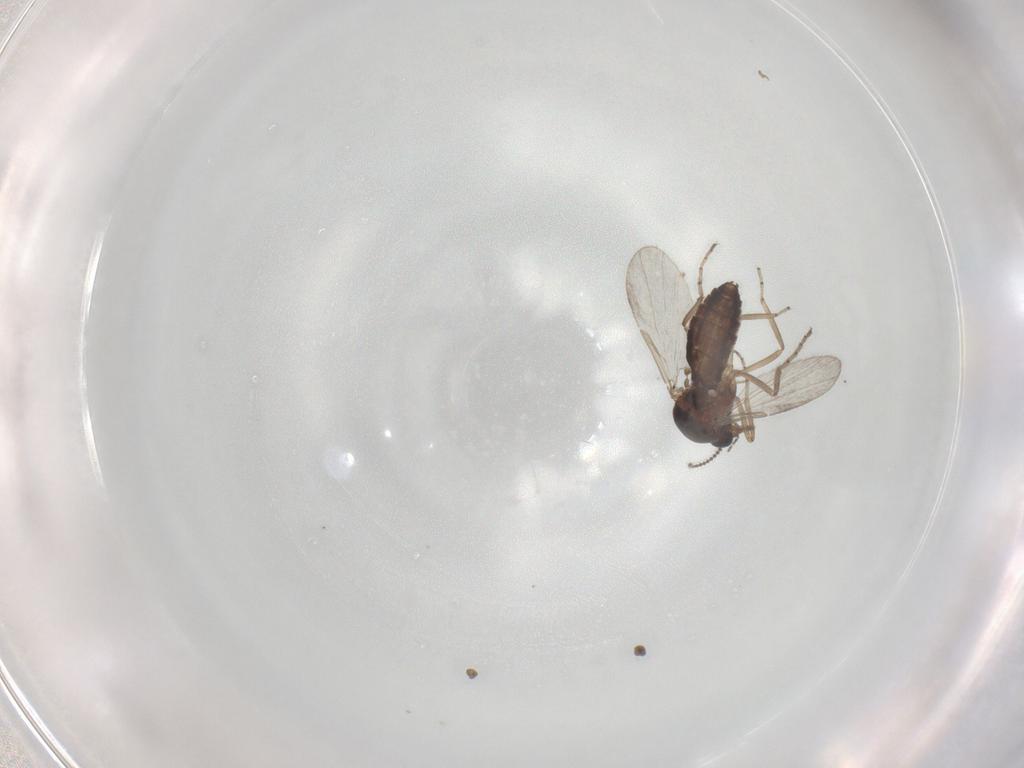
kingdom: Animalia
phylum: Arthropoda
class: Insecta
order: Diptera
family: Ceratopogonidae
